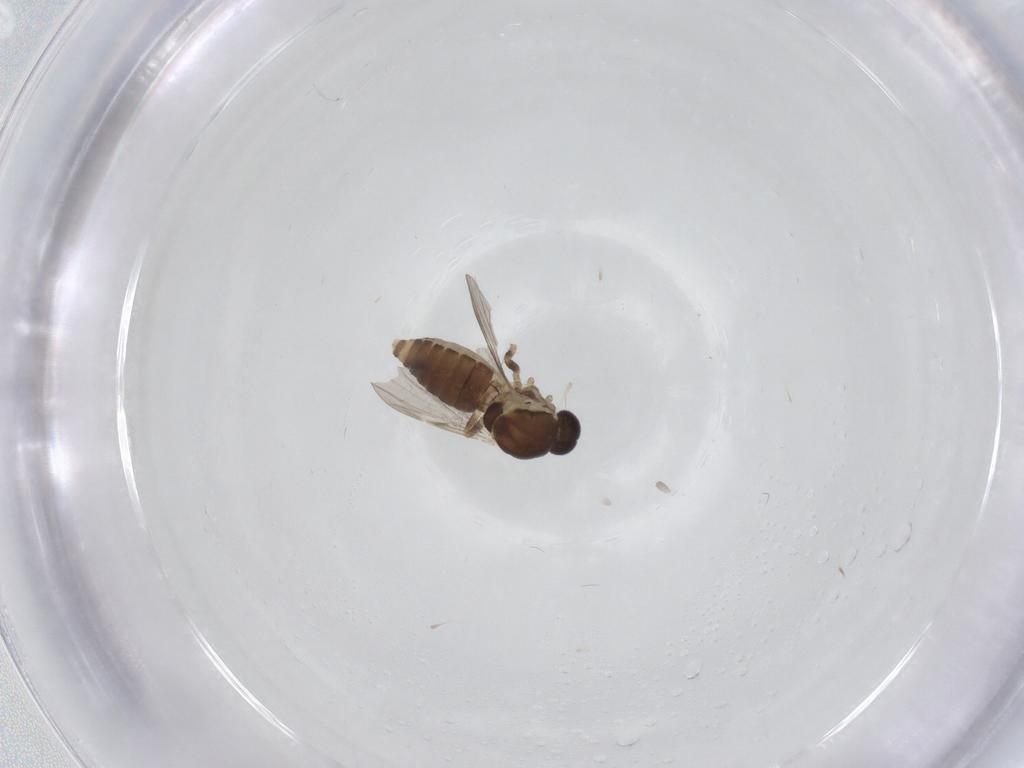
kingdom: Animalia
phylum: Arthropoda
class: Insecta
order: Diptera
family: Ceratopogonidae
